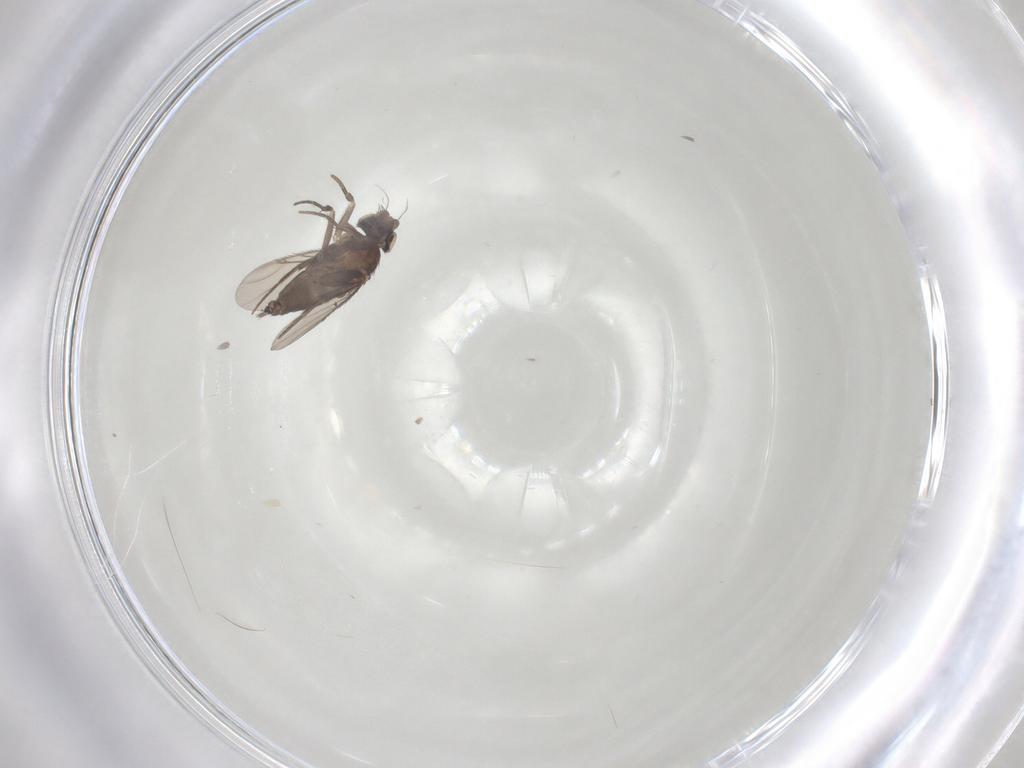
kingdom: Animalia
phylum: Arthropoda
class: Insecta
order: Diptera
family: Phoridae
